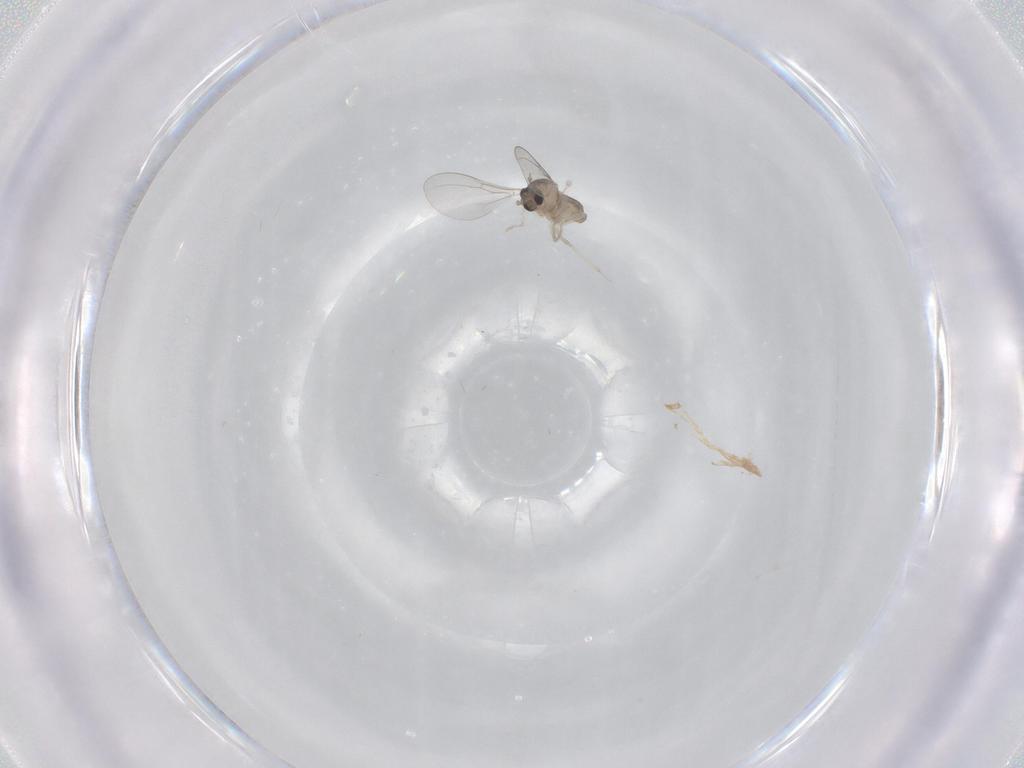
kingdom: Animalia
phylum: Arthropoda
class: Insecta
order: Diptera
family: Cecidomyiidae
